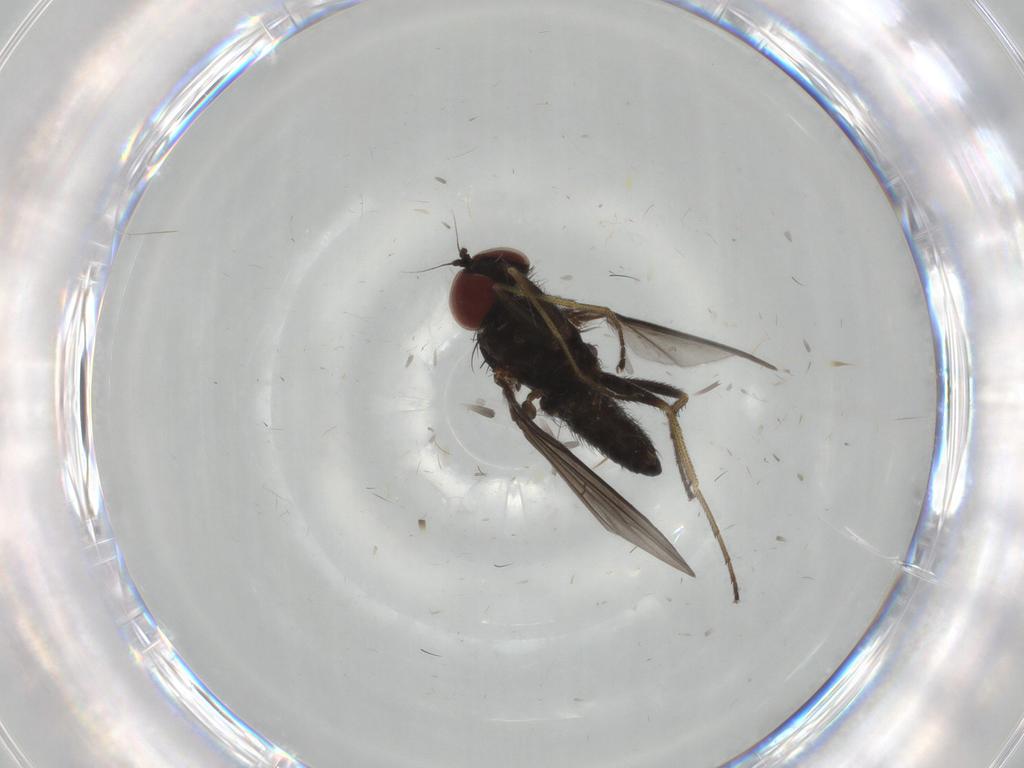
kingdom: Animalia
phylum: Arthropoda
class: Insecta
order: Diptera
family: Dolichopodidae
